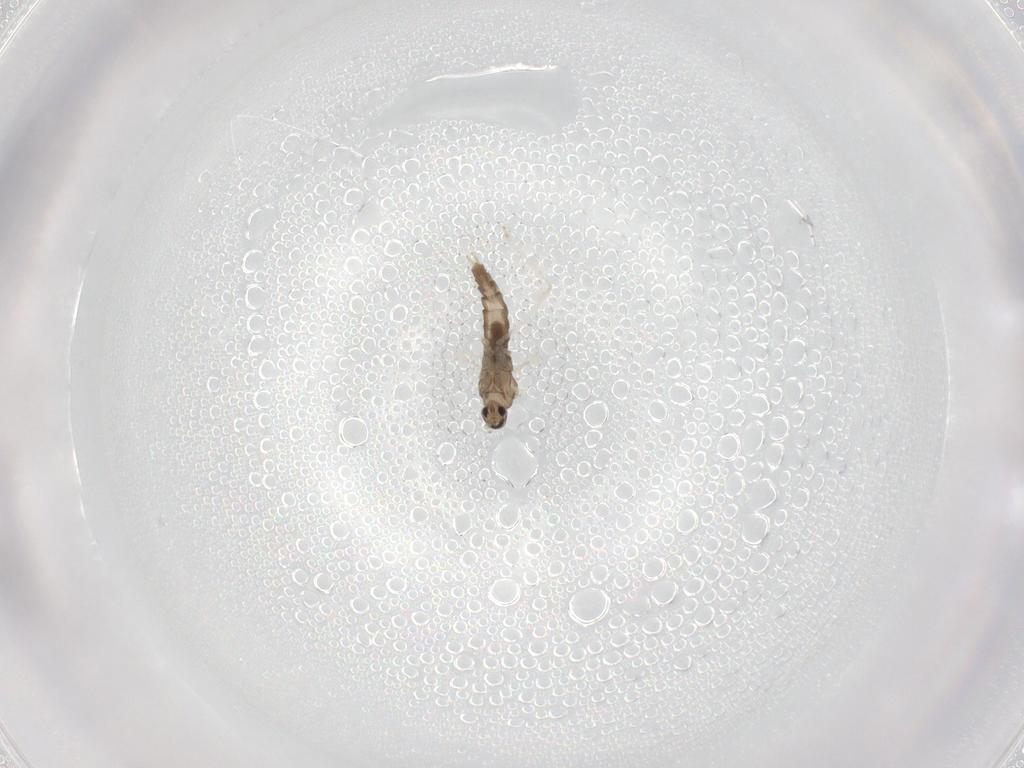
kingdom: Animalia
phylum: Arthropoda
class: Insecta
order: Diptera
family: Cecidomyiidae
